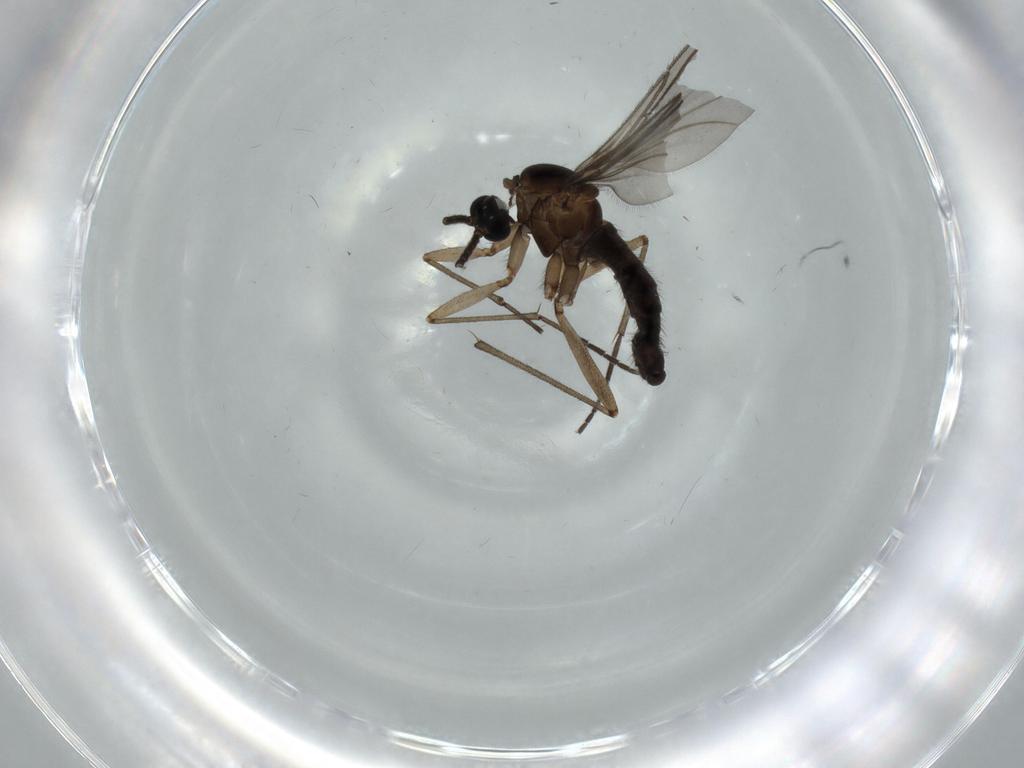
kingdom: Animalia
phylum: Arthropoda
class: Insecta
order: Diptera
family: Sciaridae
